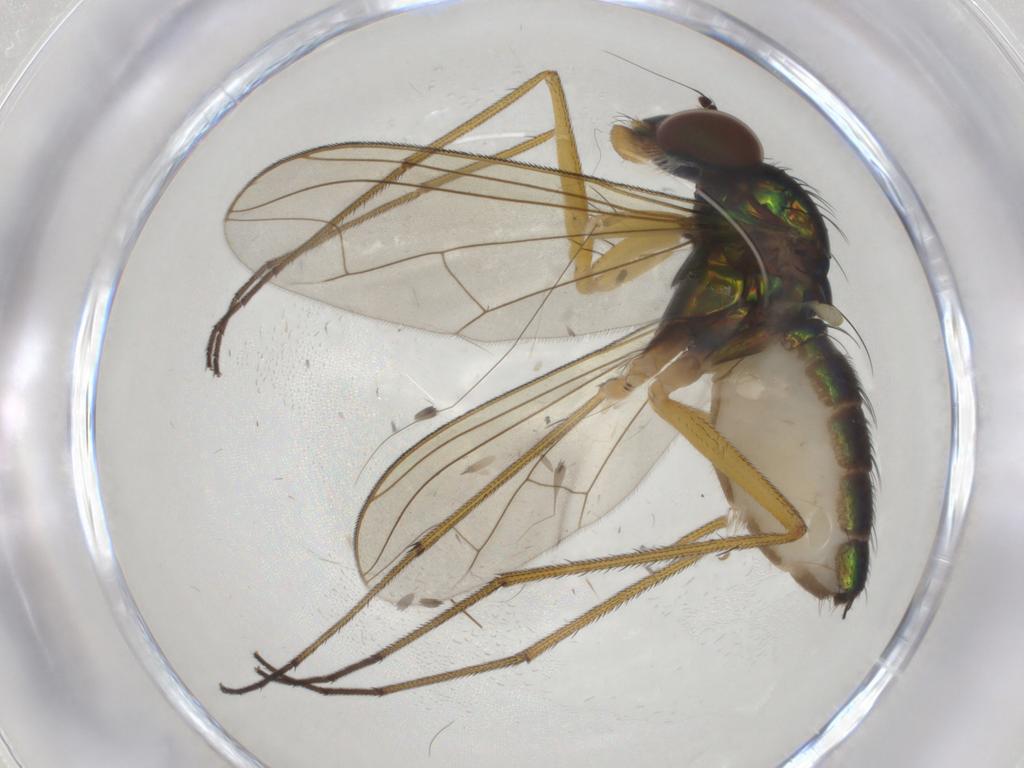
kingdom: Animalia
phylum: Arthropoda
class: Insecta
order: Diptera
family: Dolichopodidae
